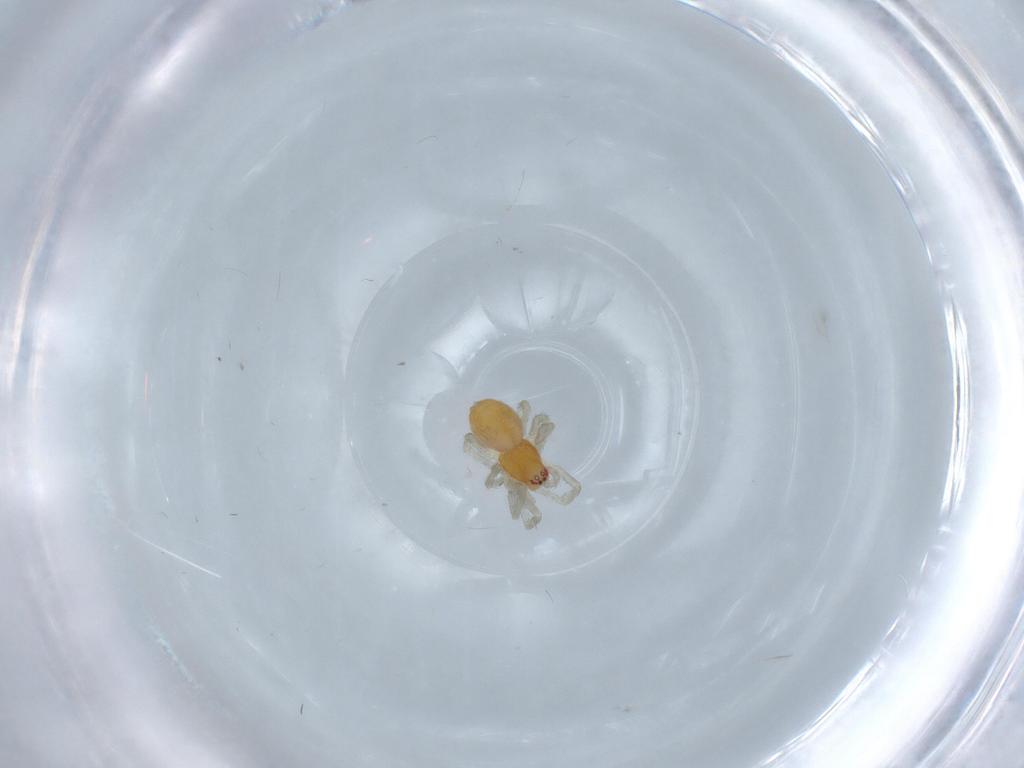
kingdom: Animalia
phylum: Arthropoda
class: Arachnida
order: Araneae
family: Dictynidae
